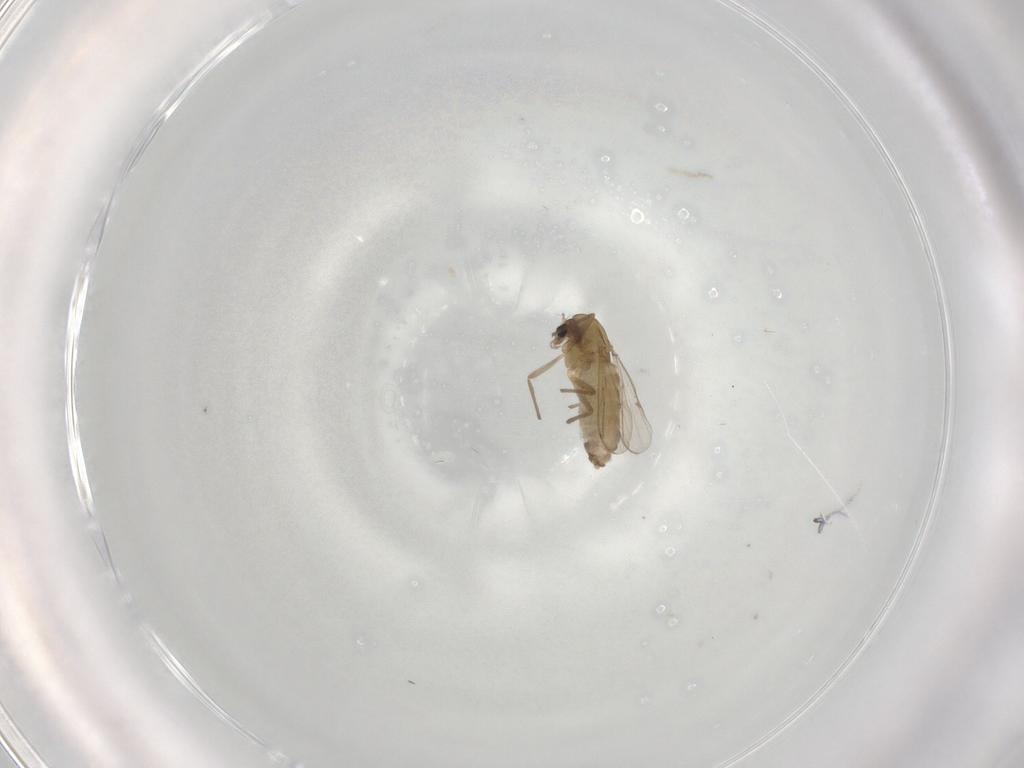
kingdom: Animalia
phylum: Arthropoda
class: Insecta
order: Diptera
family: Chironomidae
